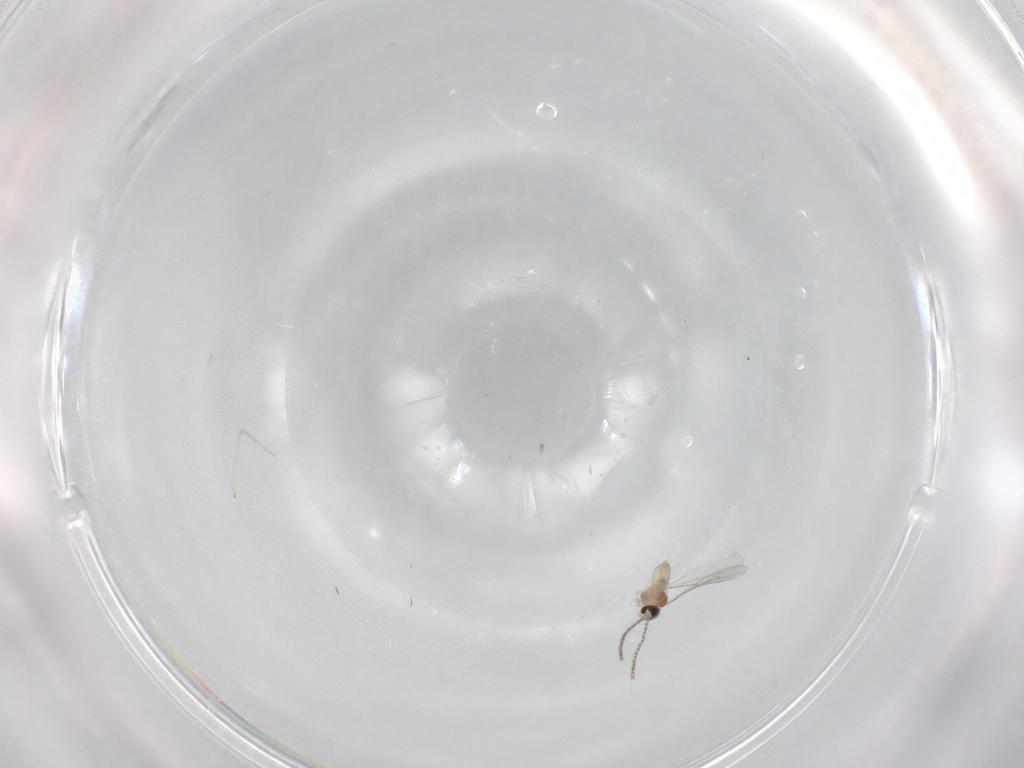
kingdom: Animalia
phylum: Arthropoda
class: Insecta
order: Diptera
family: Cecidomyiidae
